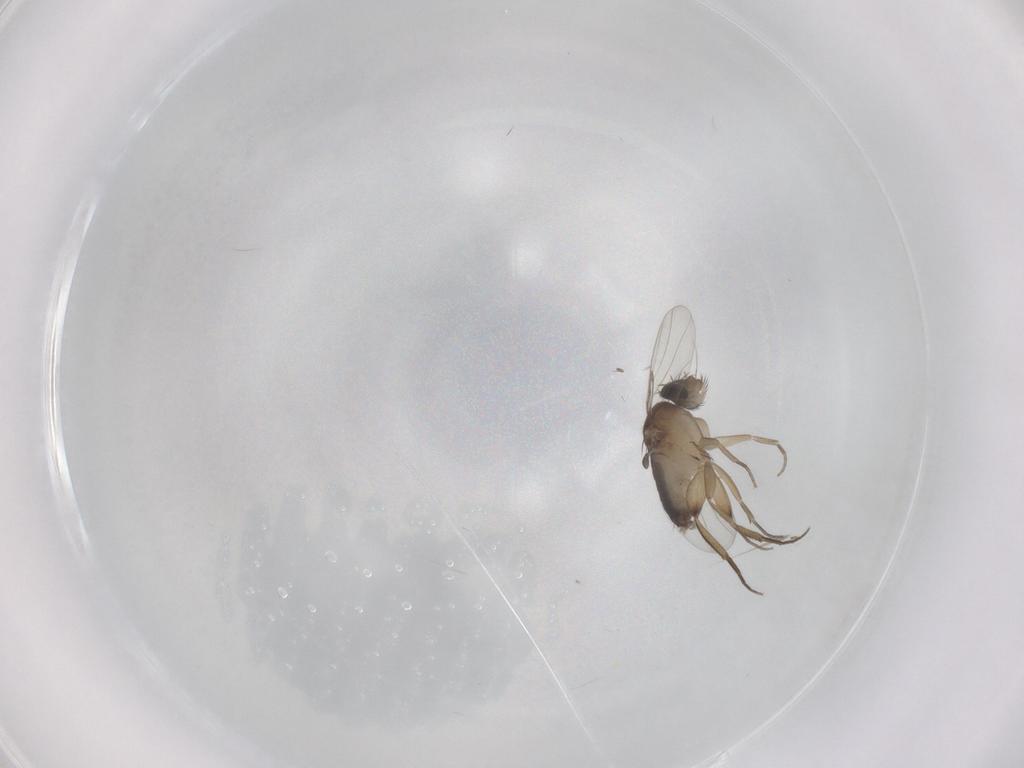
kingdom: Animalia
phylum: Arthropoda
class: Insecta
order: Diptera
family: Phoridae
